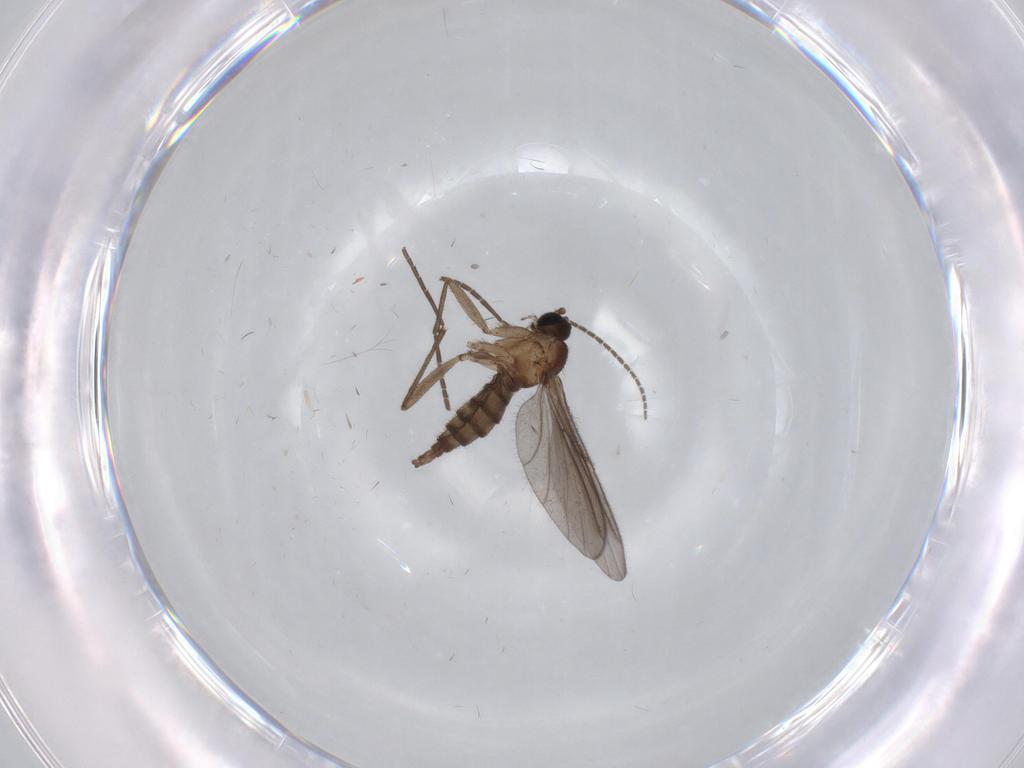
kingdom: Animalia
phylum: Arthropoda
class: Insecta
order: Diptera
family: Sciaridae
